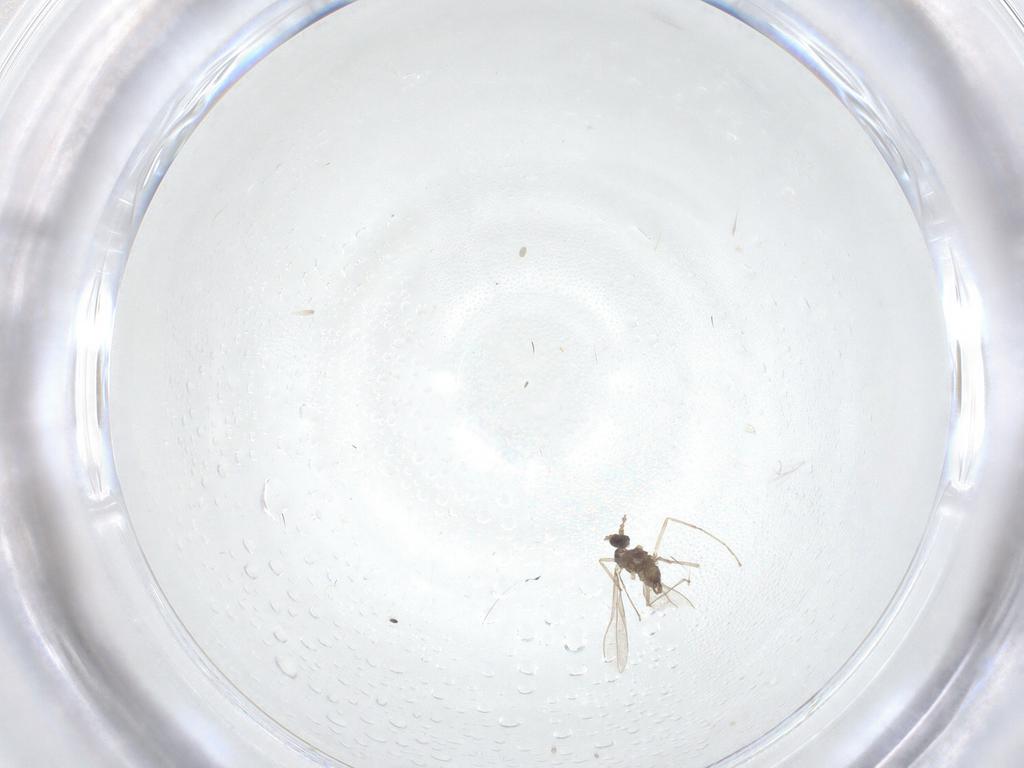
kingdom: Animalia
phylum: Arthropoda
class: Insecta
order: Diptera
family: Cecidomyiidae
